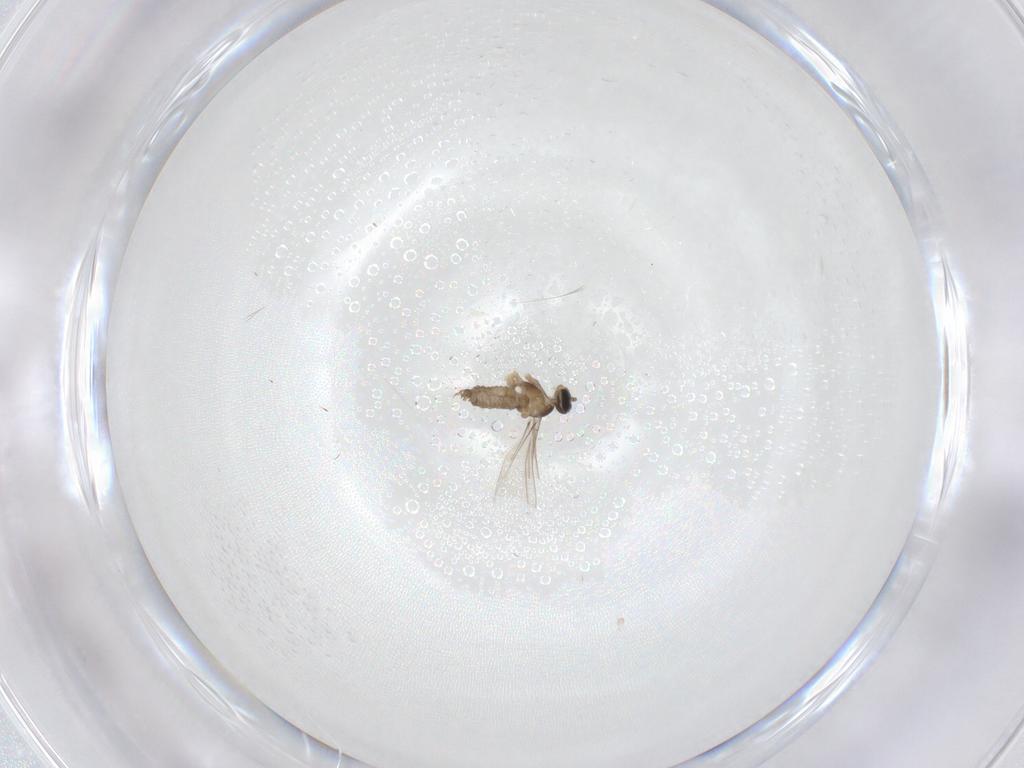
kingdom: Animalia
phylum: Arthropoda
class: Insecta
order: Diptera
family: Cecidomyiidae
